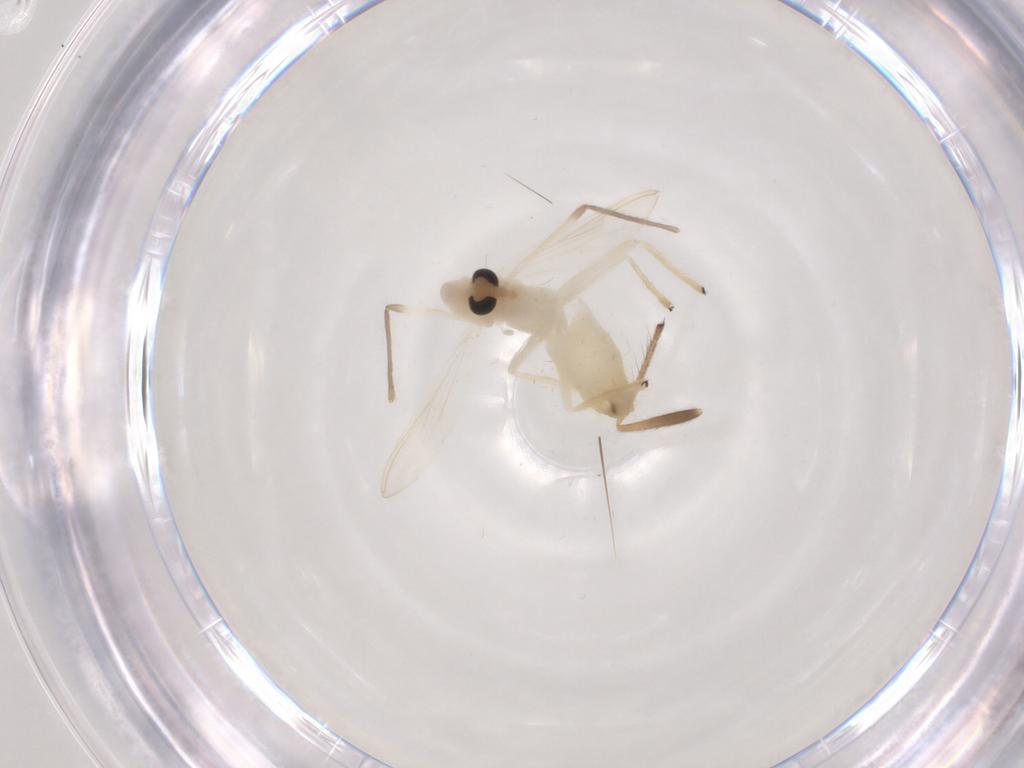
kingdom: Animalia
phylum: Arthropoda
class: Insecta
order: Diptera
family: Chironomidae
